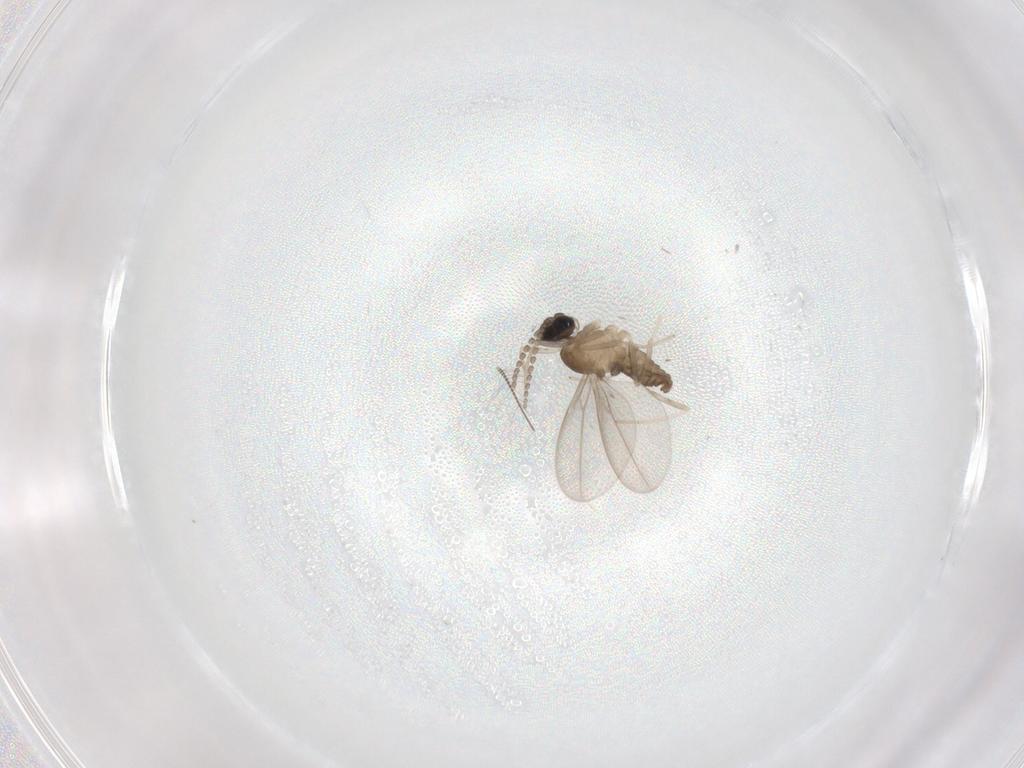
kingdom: Animalia
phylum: Arthropoda
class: Insecta
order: Diptera
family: Cecidomyiidae
